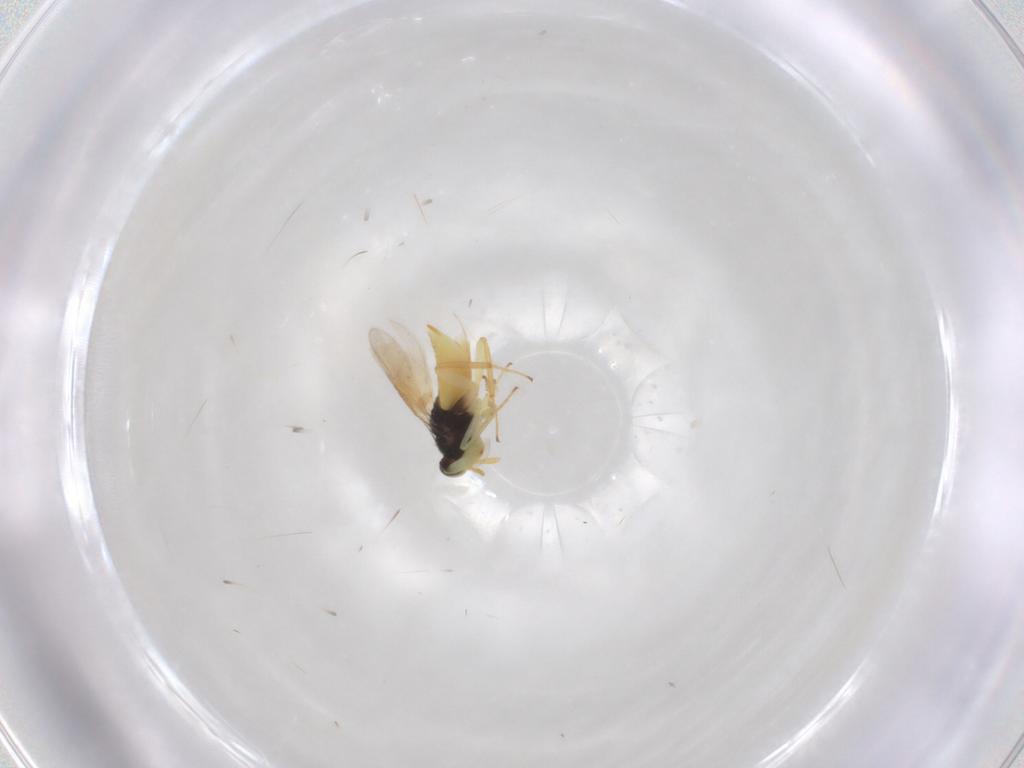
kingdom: Animalia
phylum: Arthropoda
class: Insecta
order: Hymenoptera
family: Aphelinidae
